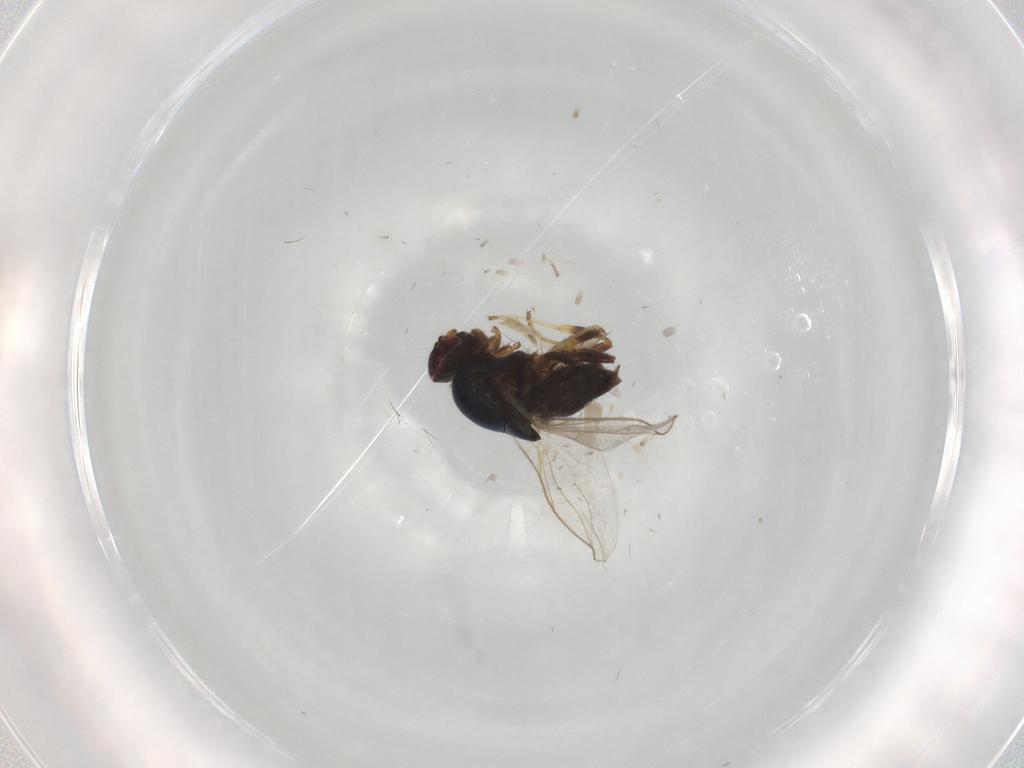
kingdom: Animalia
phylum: Arthropoda
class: Insecta
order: Diptera
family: Chloropidae
